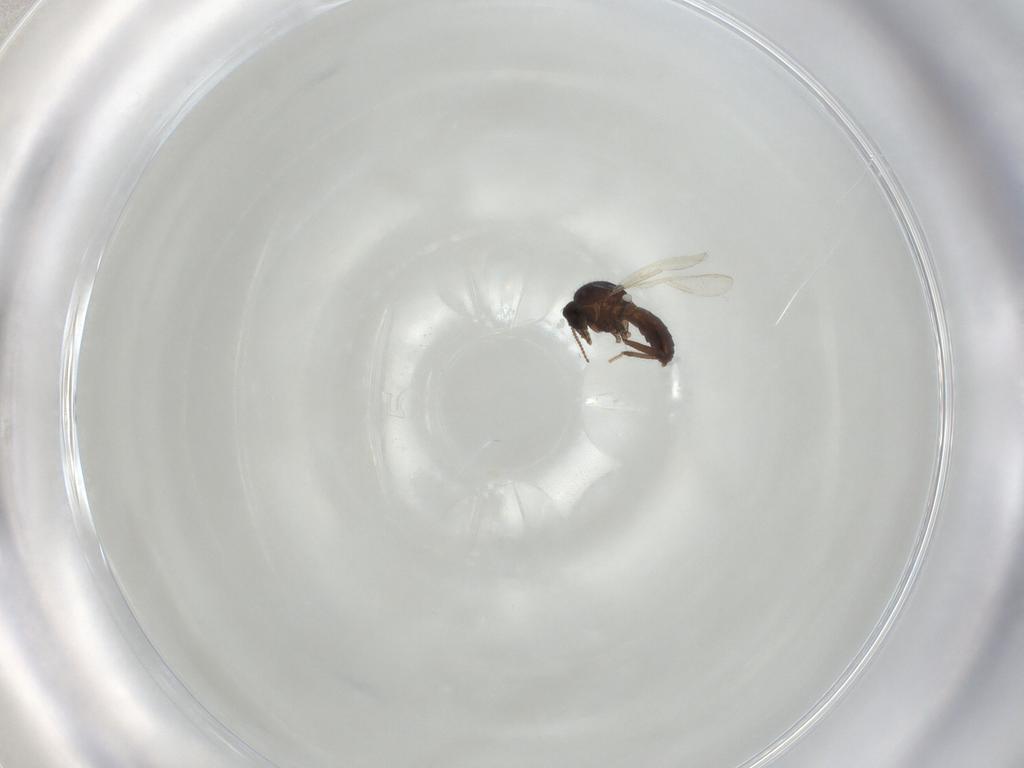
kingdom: Animalia
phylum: Arthropoda
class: Insecta
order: Diptera
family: Ceratopogonidae
